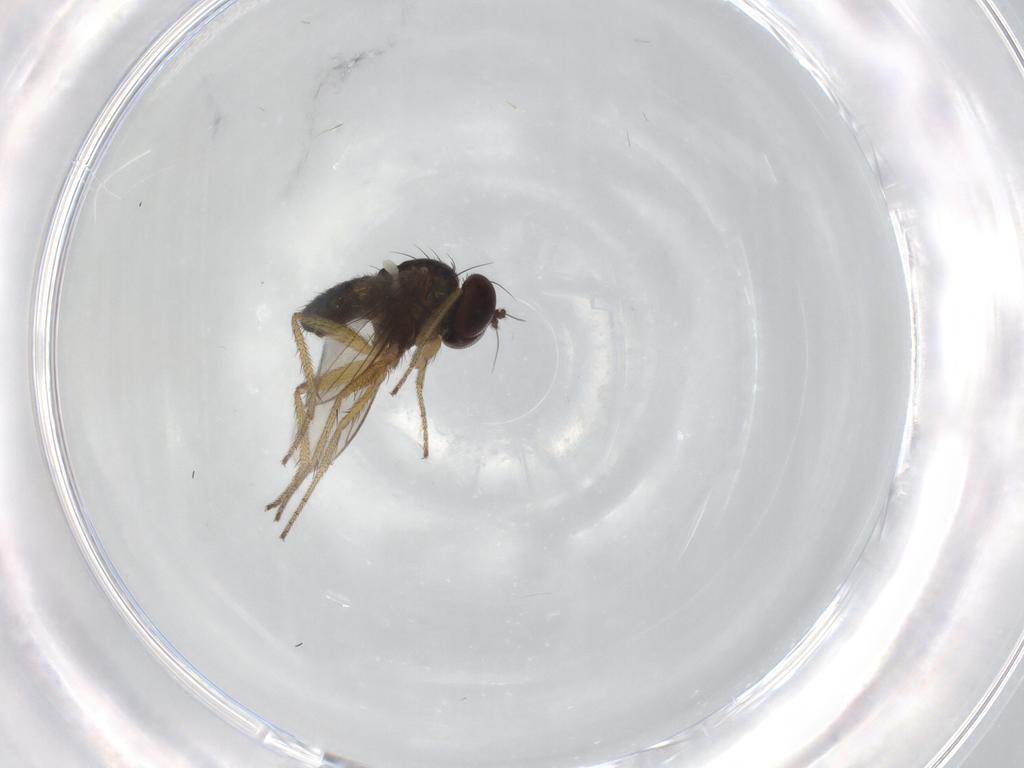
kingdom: Animalia
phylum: Arthropoda
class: Insecta
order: Diptera
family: Dolichopodidae
